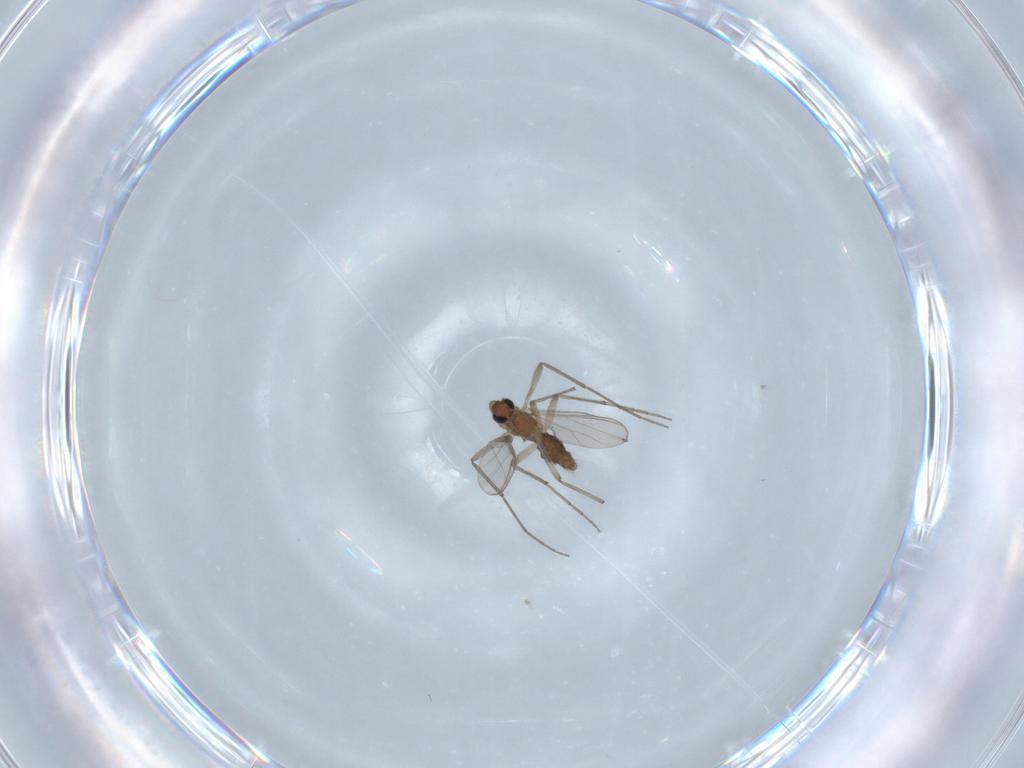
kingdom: Animalia
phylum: Arthropoda
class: Insecta
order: Diptera
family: Chironomidae
